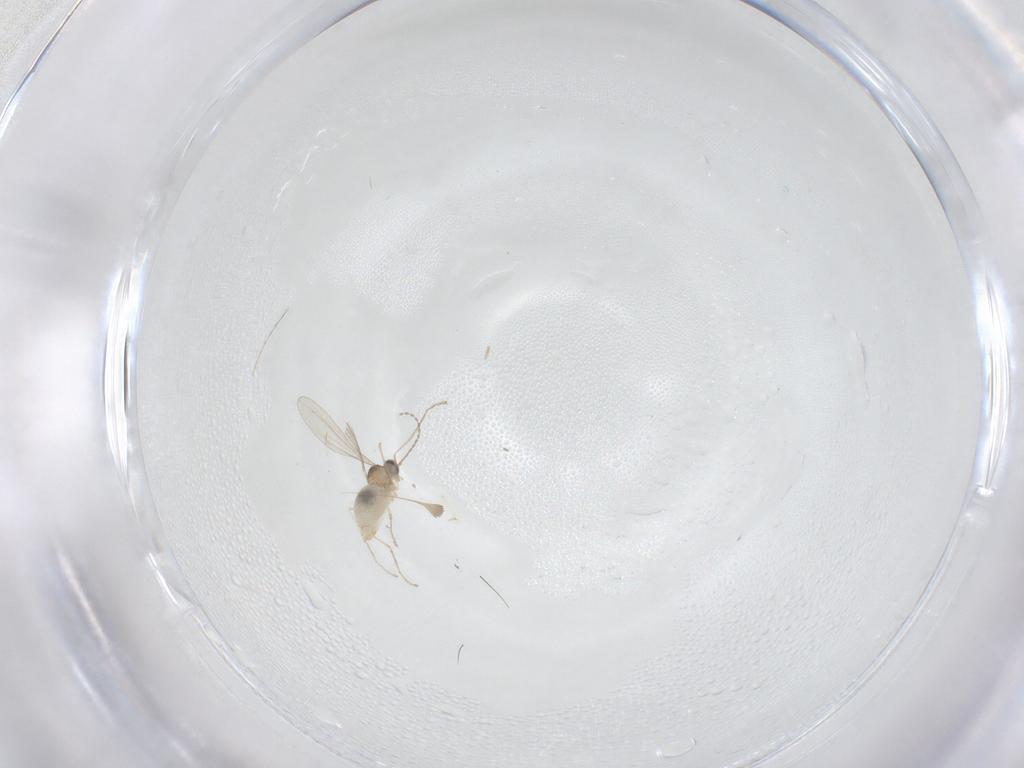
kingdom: Animalia
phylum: Arthropoda
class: Insecta
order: Diptera
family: Cecidomyiidae
